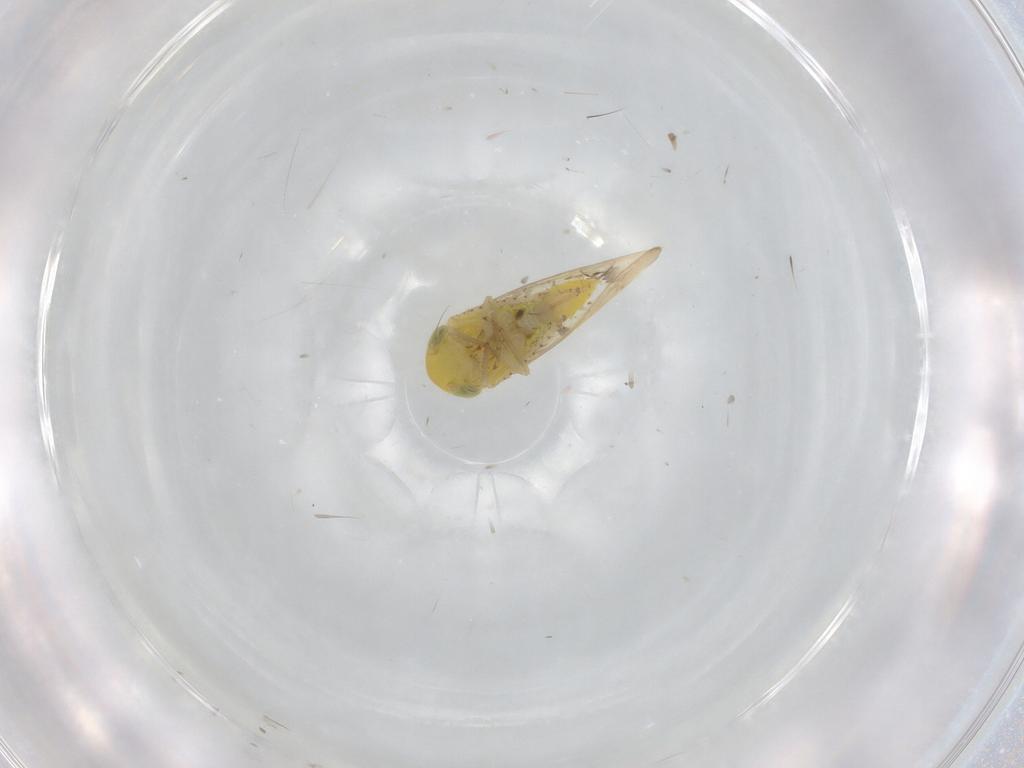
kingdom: Animalia
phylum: Arthropoda
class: Insecta
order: Hemiptera
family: Cicadellidae
